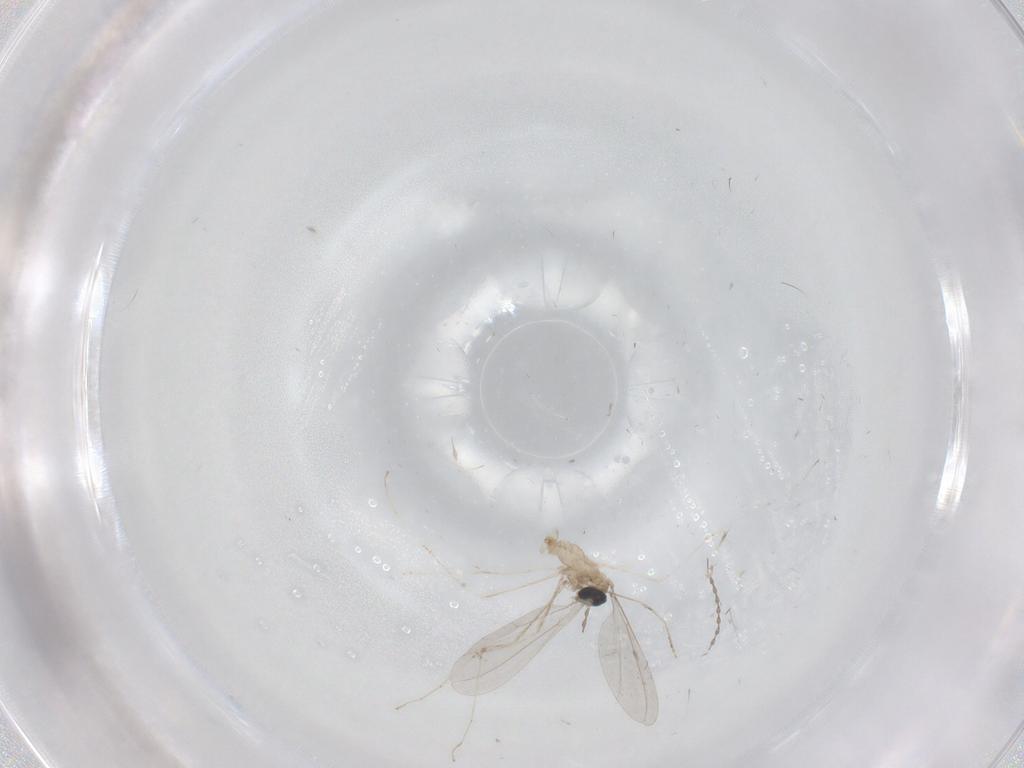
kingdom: Animalia
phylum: Arthropoda
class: Insecta
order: Diptera
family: Cecidomyiidae
